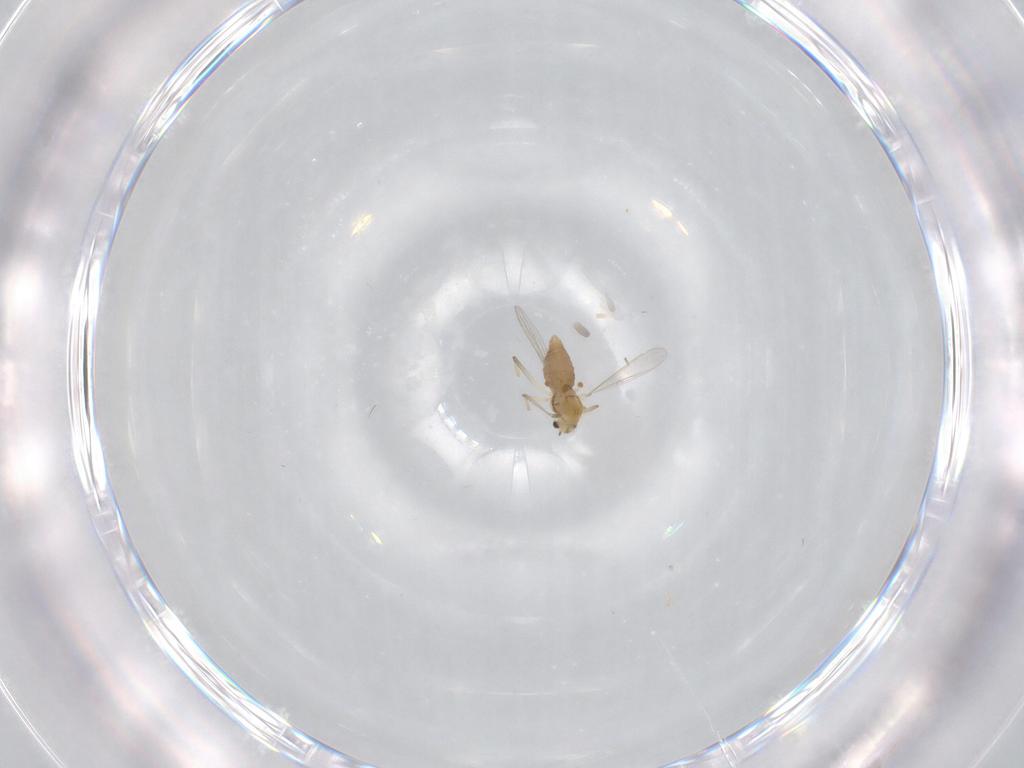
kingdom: Animalia
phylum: Arthropoda
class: Insecta
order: Diptera
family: Chironomidae
